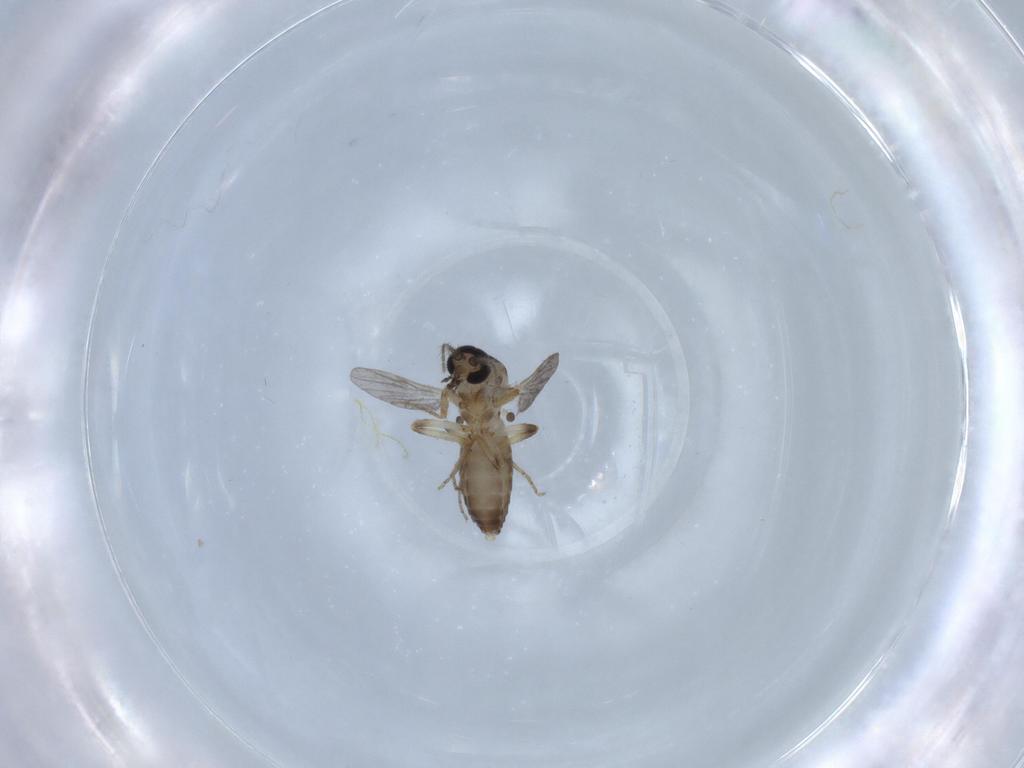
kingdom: Animalia
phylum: Arthropoda
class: Insecta
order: Diptera
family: Ceratopogonidae
